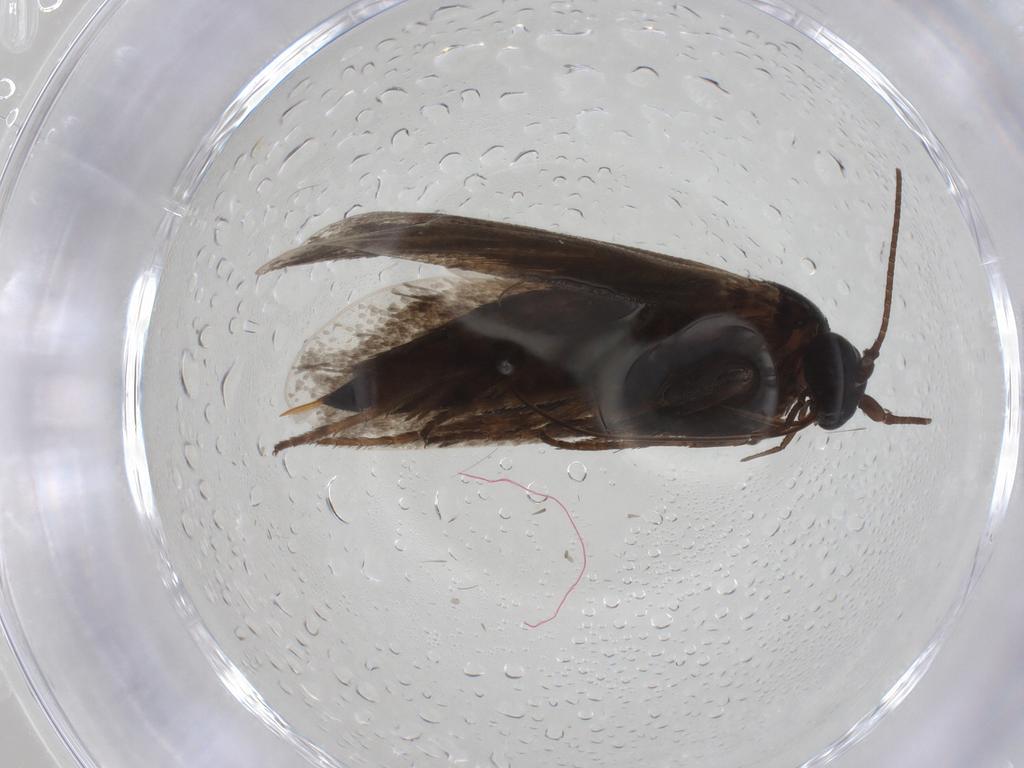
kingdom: Animalia
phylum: Arthropoda
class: Insecta
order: Lepidoptera
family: Adelidae
